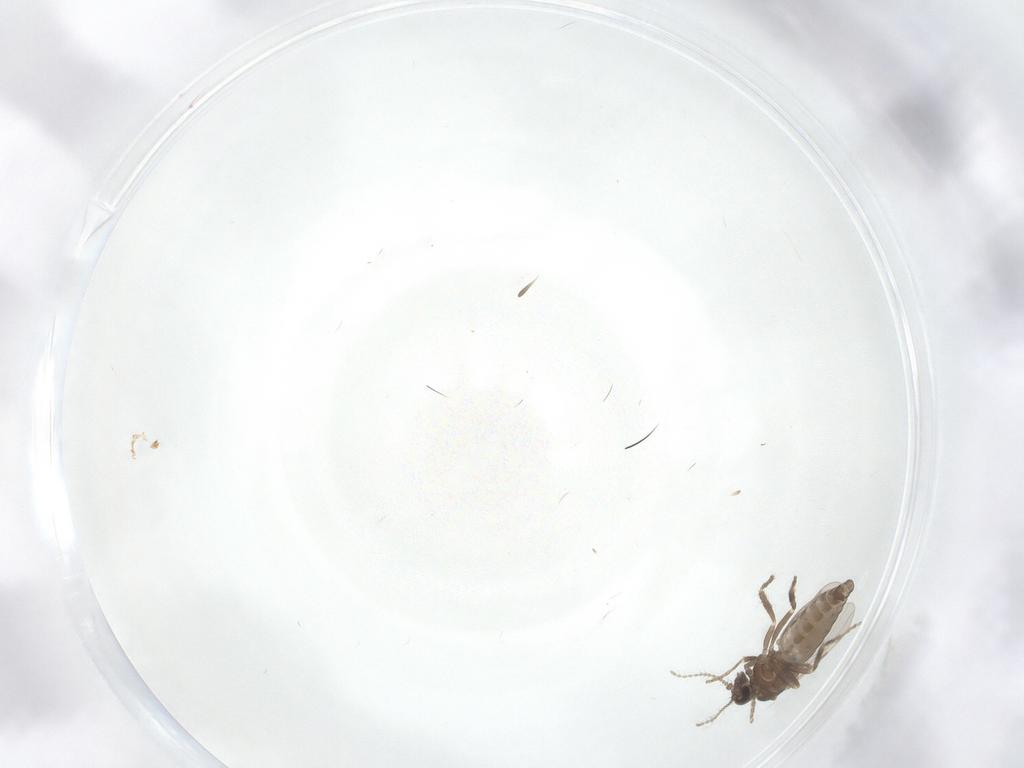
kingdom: Animalia
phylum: Arthropoda
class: Insecta
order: Diptera
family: Ceratopogonidae
